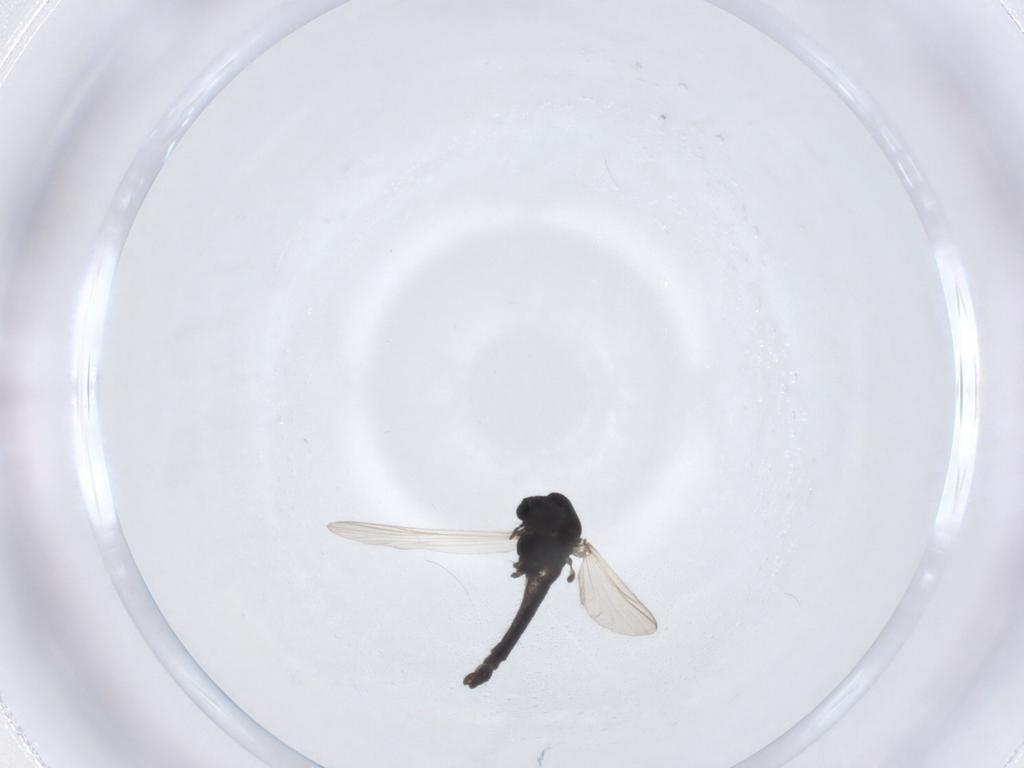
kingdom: Animalia
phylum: Arthropoda
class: Insecta
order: Diptera
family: Chironomidae
